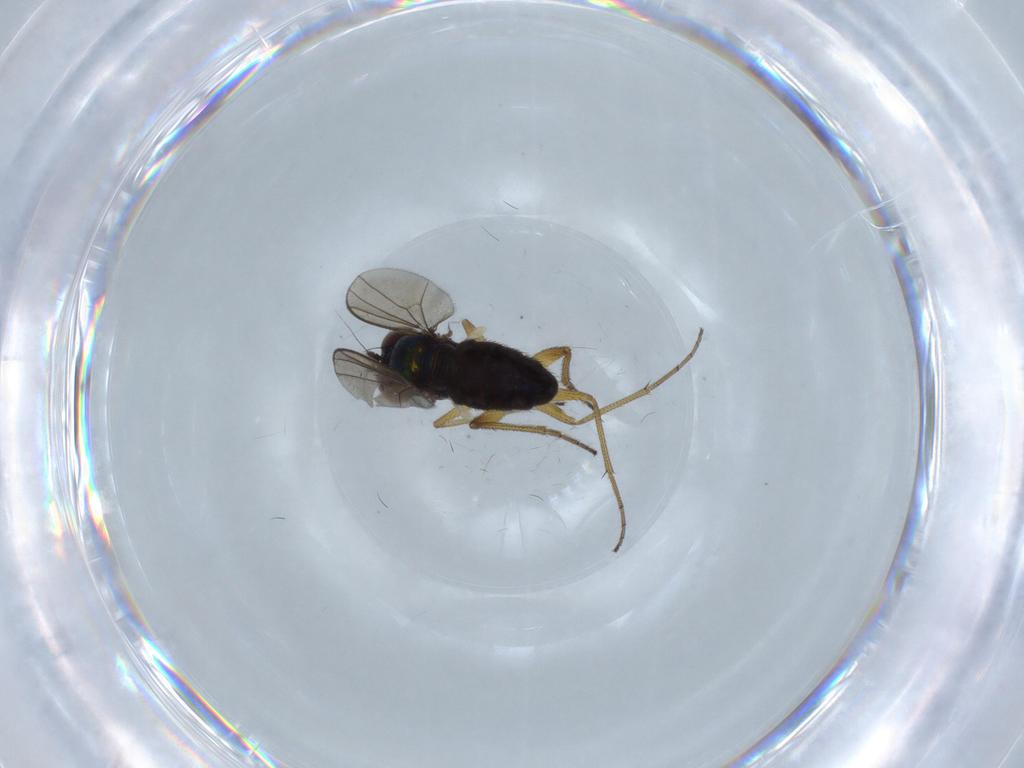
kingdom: Animalia
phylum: Arthropoda
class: Insecta
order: Diptera
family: Dolichopodidae
